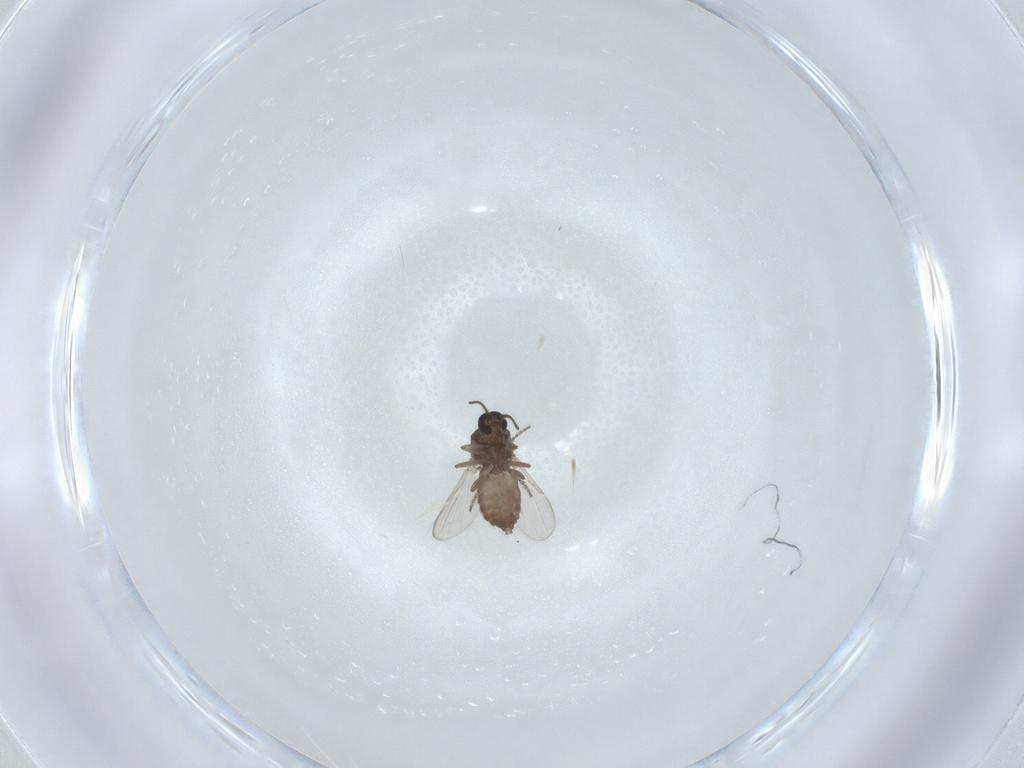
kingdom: Animalia
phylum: Arthropoda
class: Insecta
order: Diptera
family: Ceratopogonidae
